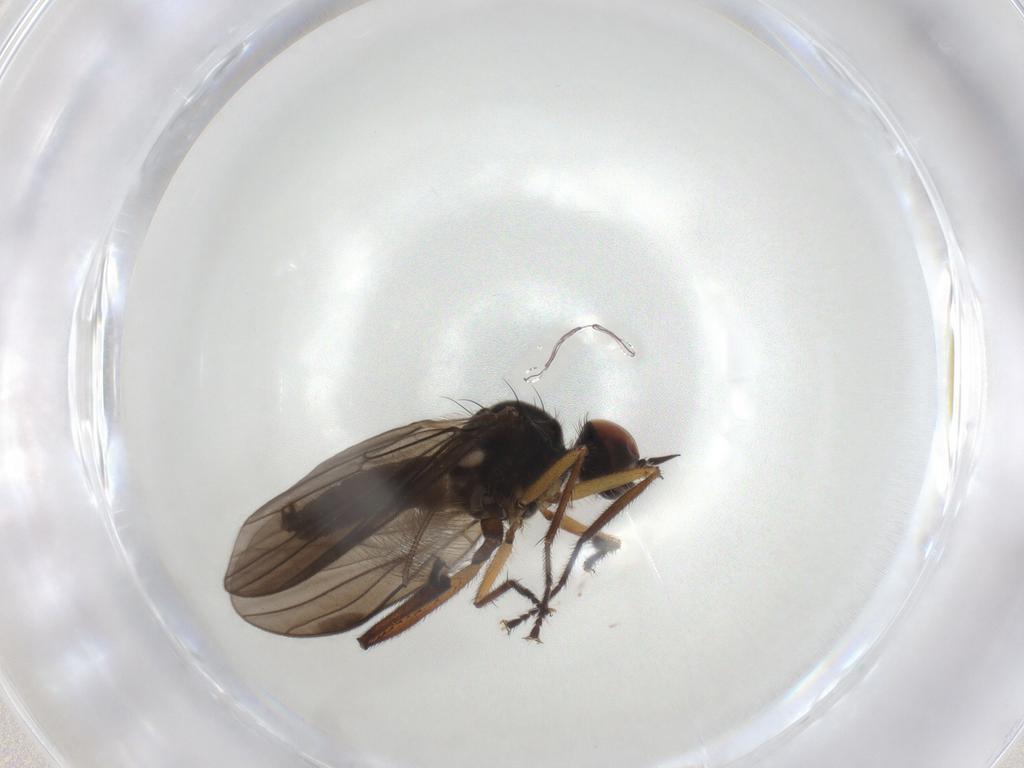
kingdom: Animalia
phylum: Arthropoda
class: Insecta
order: Diptera
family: Hybotidae
